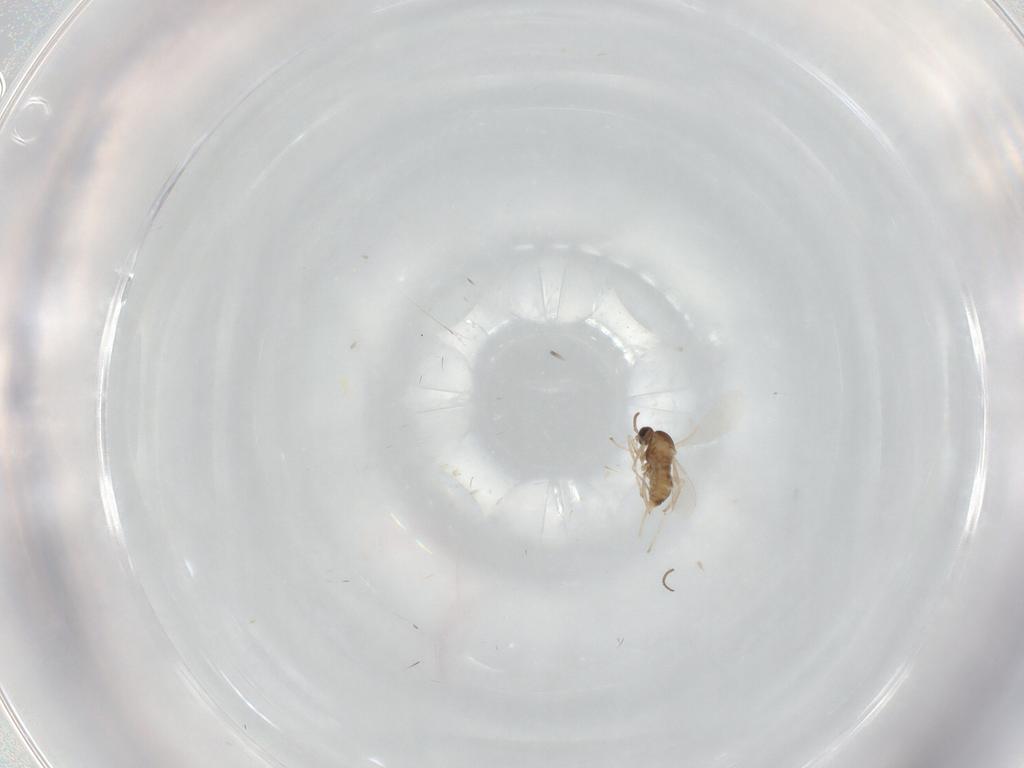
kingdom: Animalia
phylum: Arthropoda
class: Insecta
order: Diptera
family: Ceratopogonidae
